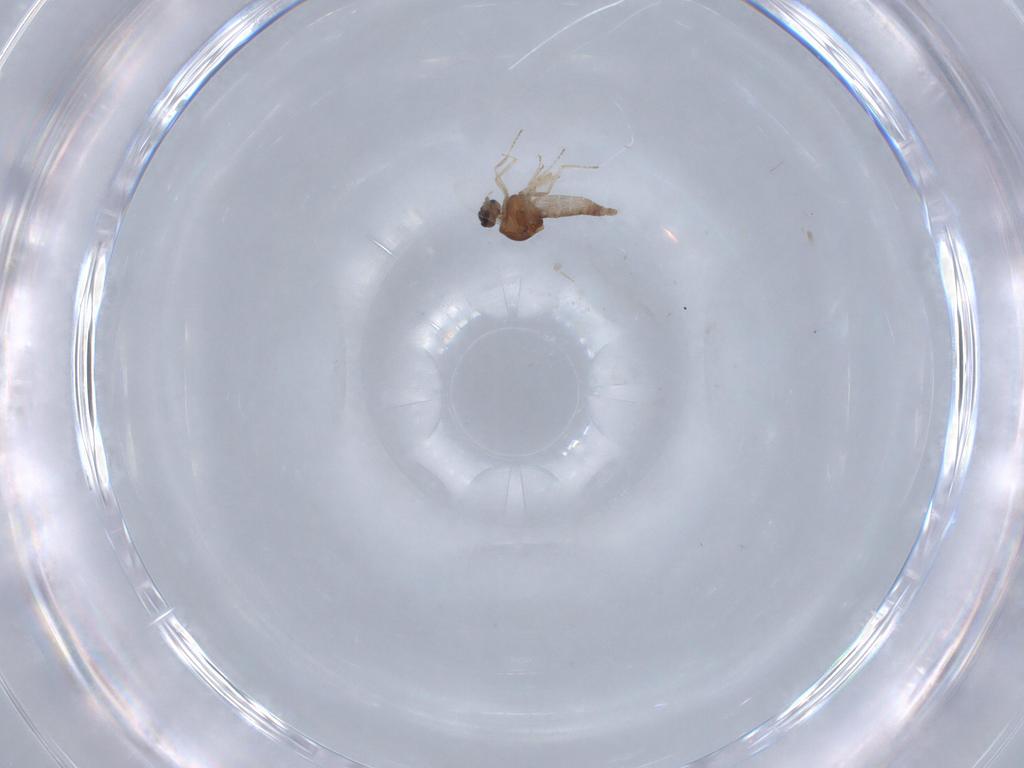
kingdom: Animalia
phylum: Arthropoda
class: Insecta
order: Diptera
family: Ceratopogonidae
